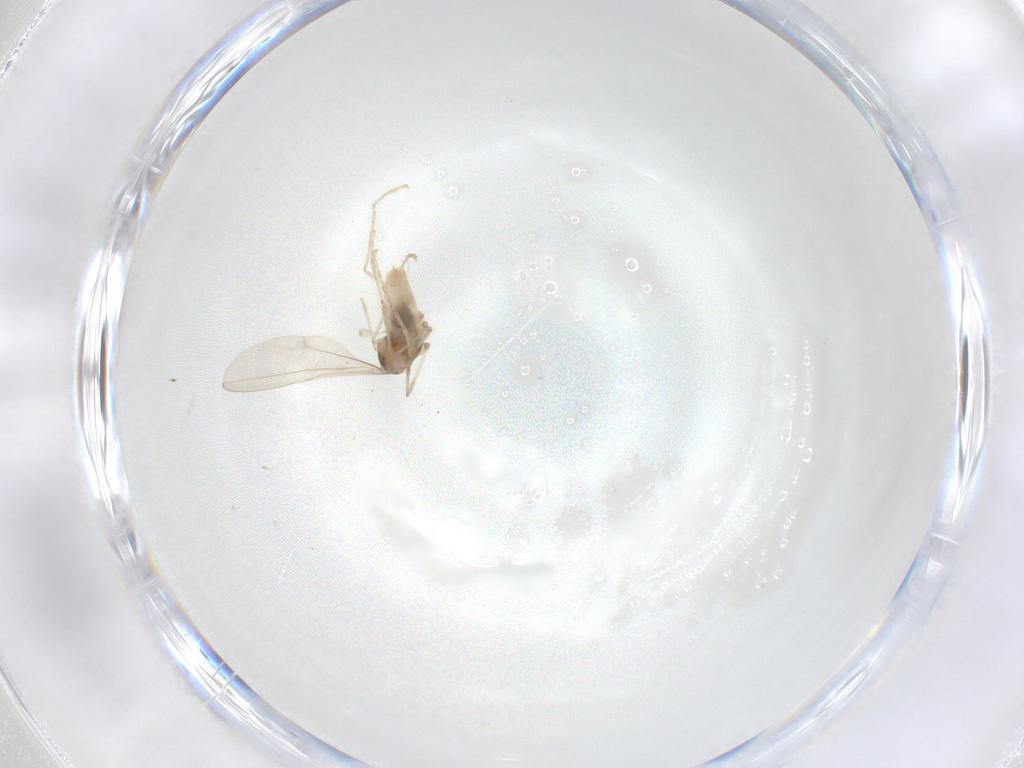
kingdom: Animalia
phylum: Arthropoda
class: Insecta
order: Diptera
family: Cecidomyiidae
